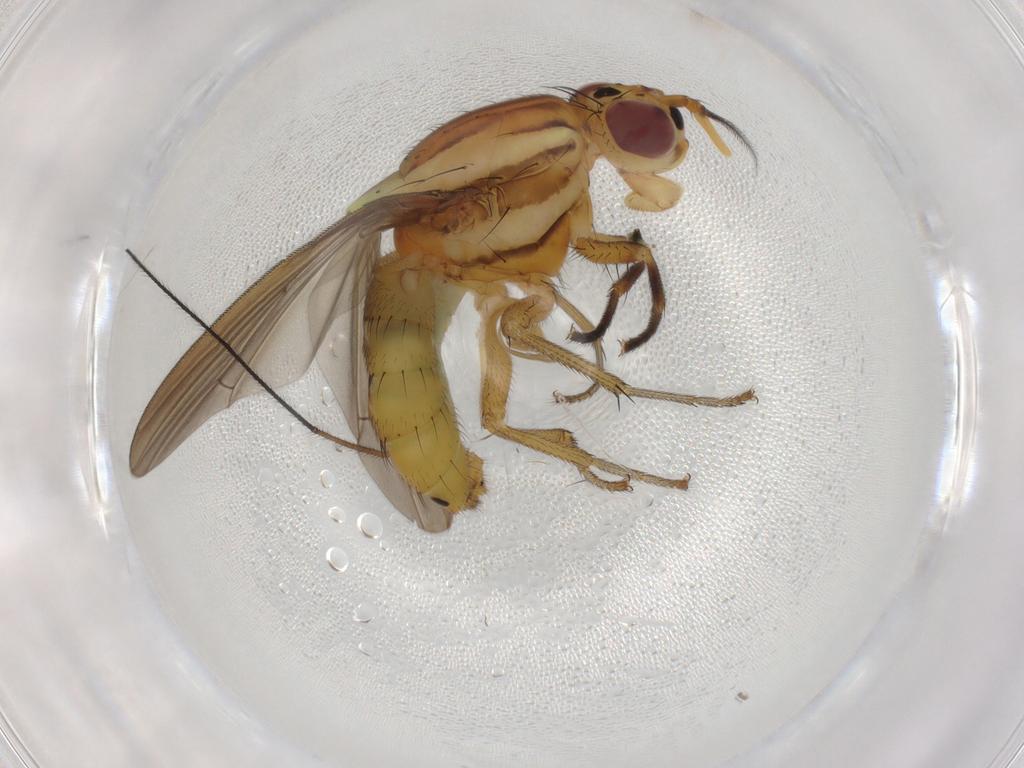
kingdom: Animalia
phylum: Arthropoda
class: Insecta
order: Diptera
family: Lauxaniidae
